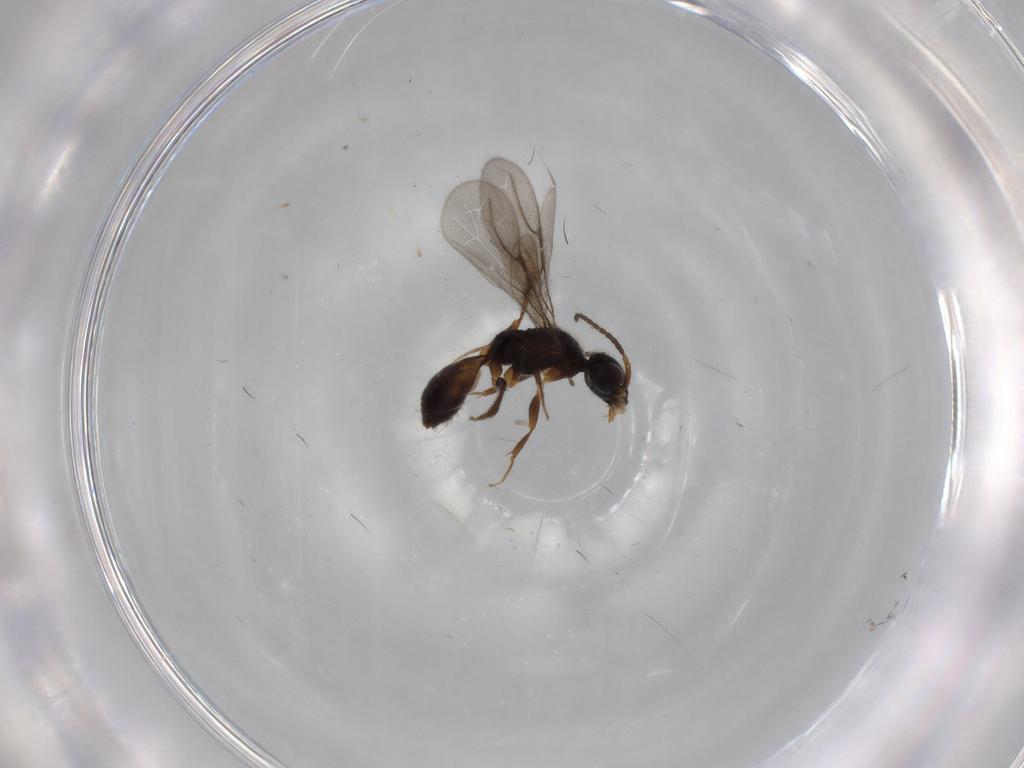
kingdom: Animalia
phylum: Arthropoda
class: Insecta
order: Hymenoptera
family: Bethylidae
